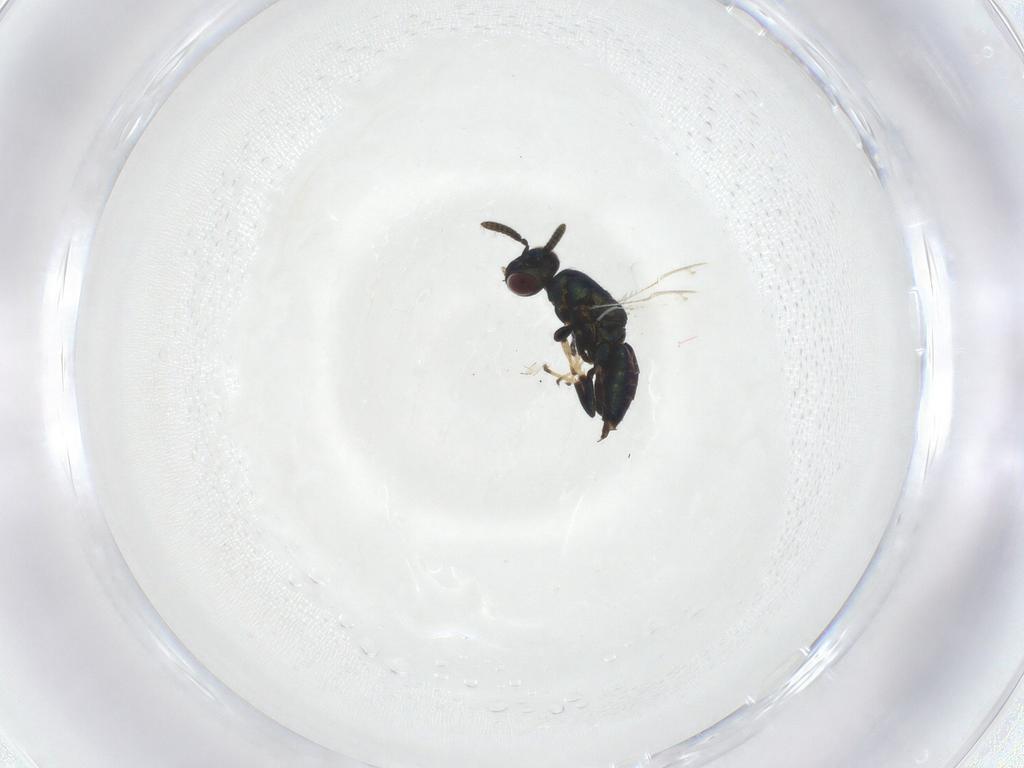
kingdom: Animalia
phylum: Arthropoda
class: Insecta
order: Hymenoptera
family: Pteromalidae
